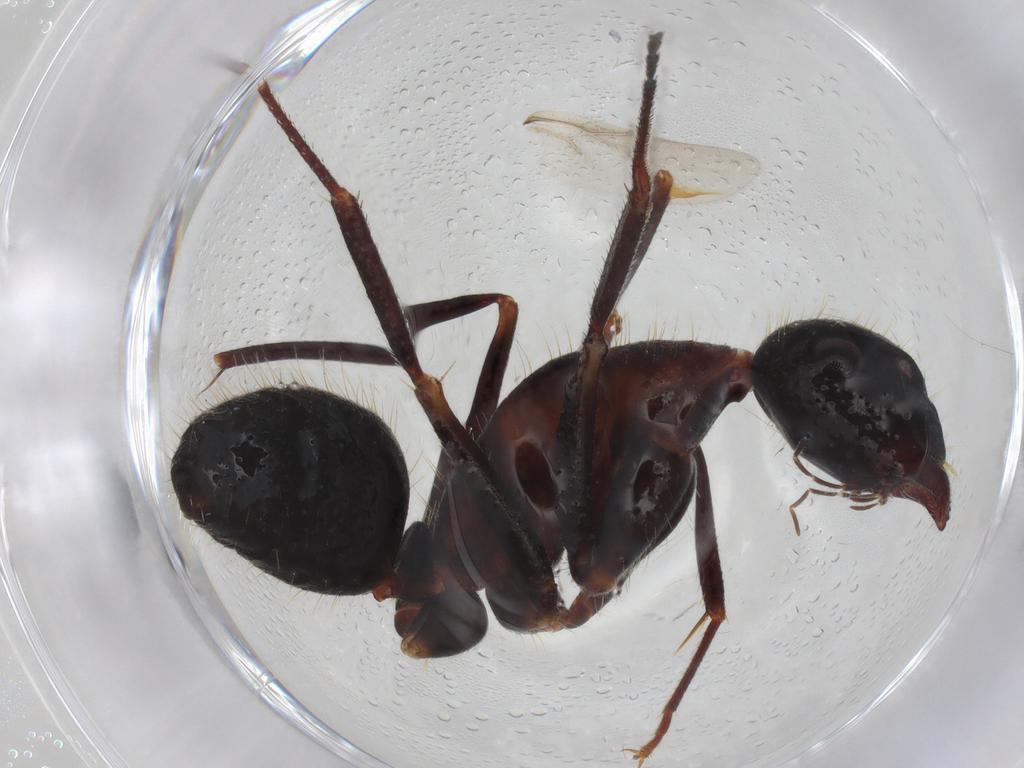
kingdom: Animalia
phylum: Arthropoda
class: Insecta
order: Hymenoptera
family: Formicidae
